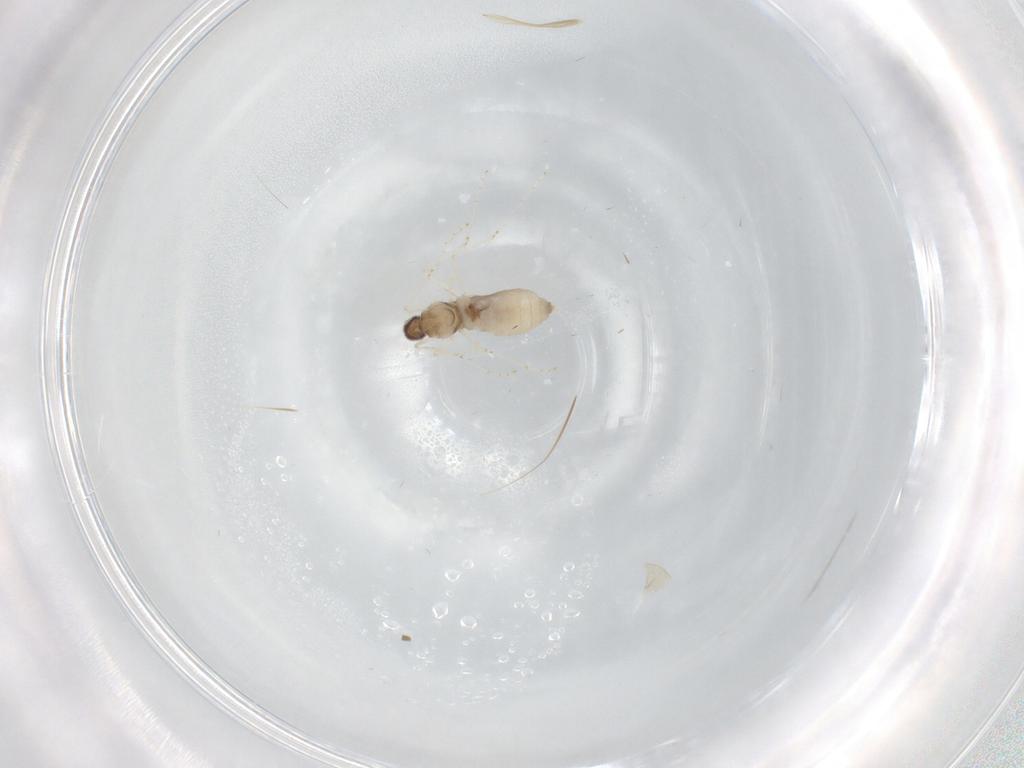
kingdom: Animalia
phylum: Arthropoda
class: Insecta
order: Diptera
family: Cecidomyiidae
